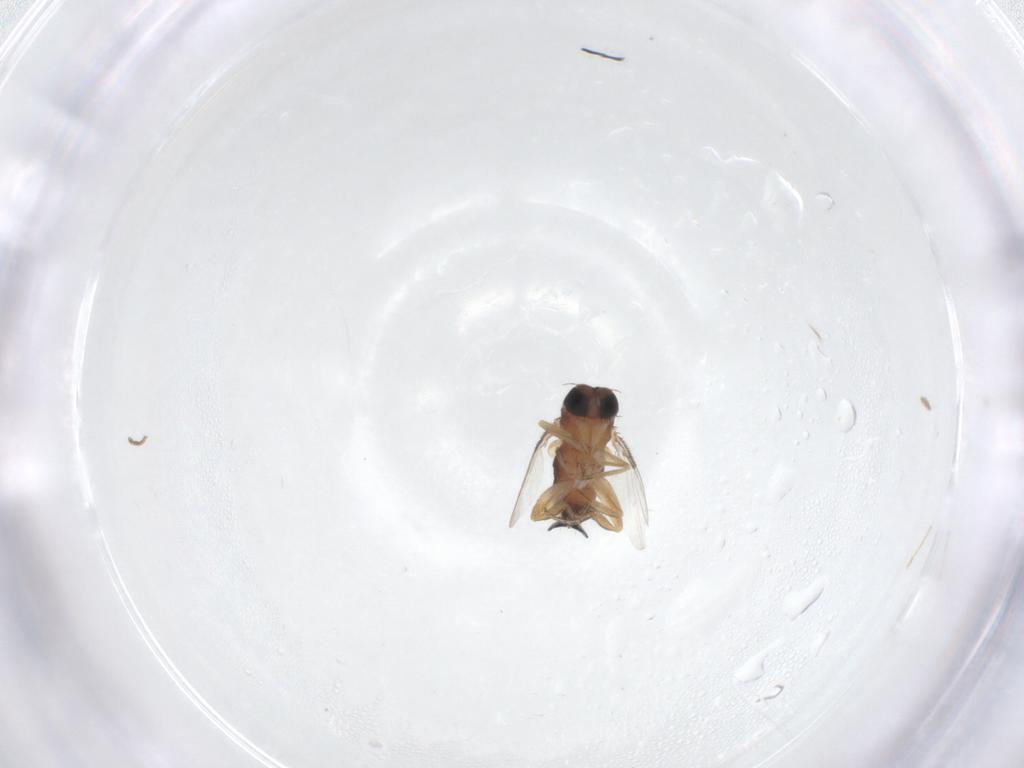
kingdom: Animalia
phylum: Arthropoda
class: Insecta
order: Diptera
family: Phoridae
